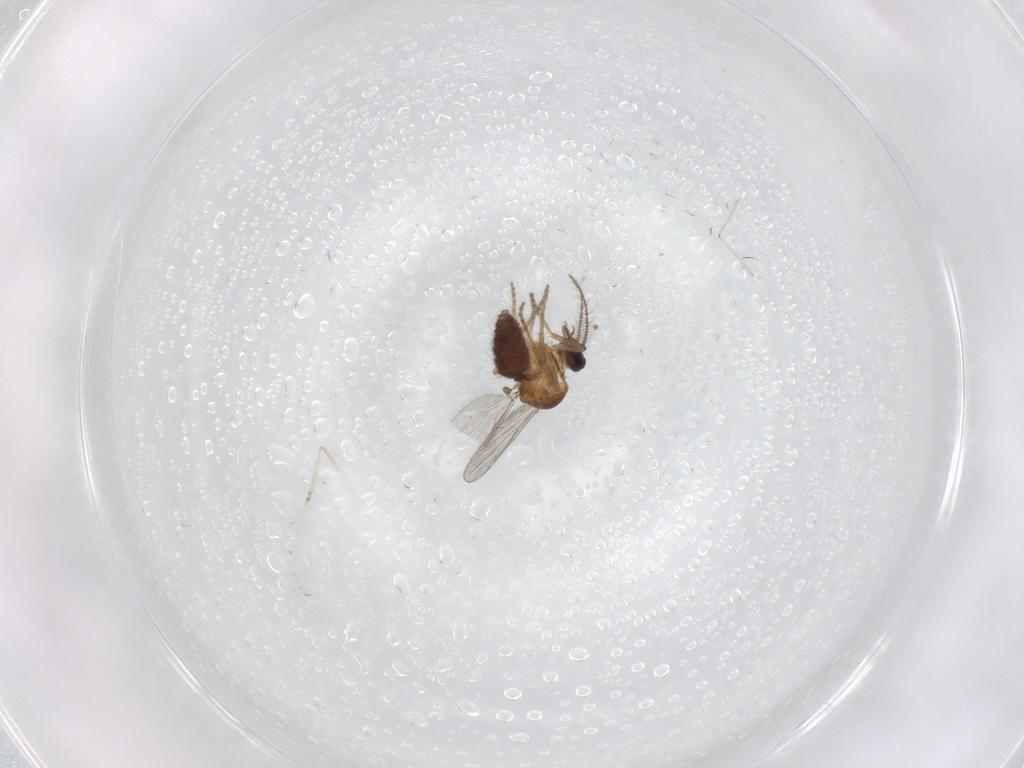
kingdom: Animalia
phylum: Arthropoda
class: Insecta
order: Diptera
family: Ceratopogonidae
